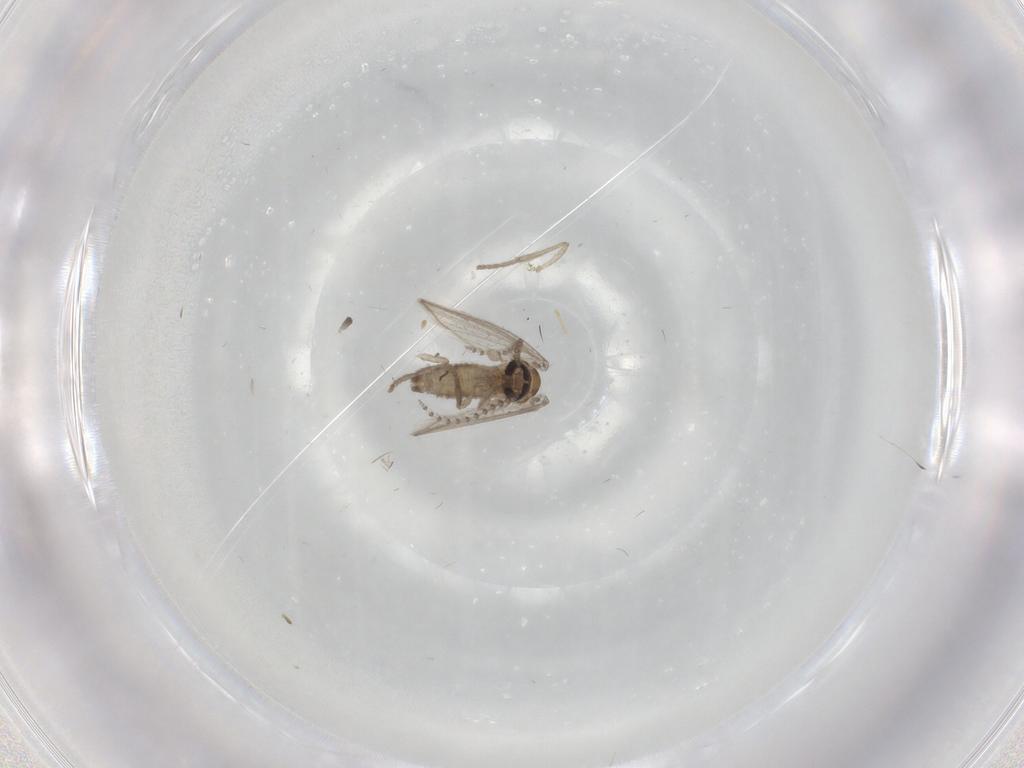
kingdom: Animalia
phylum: Arthropoda
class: Insecta
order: Diptera
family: Psychodidae
